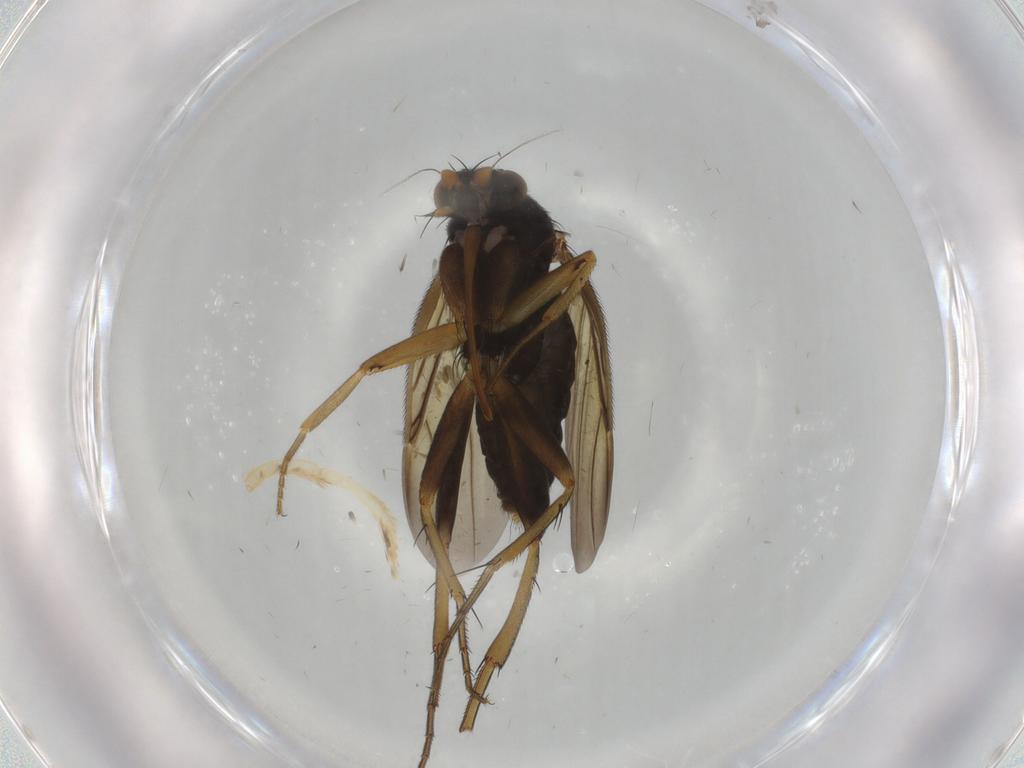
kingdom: Animalia
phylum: Arthropoda
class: Insecta
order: Diptera
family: Phoridae
